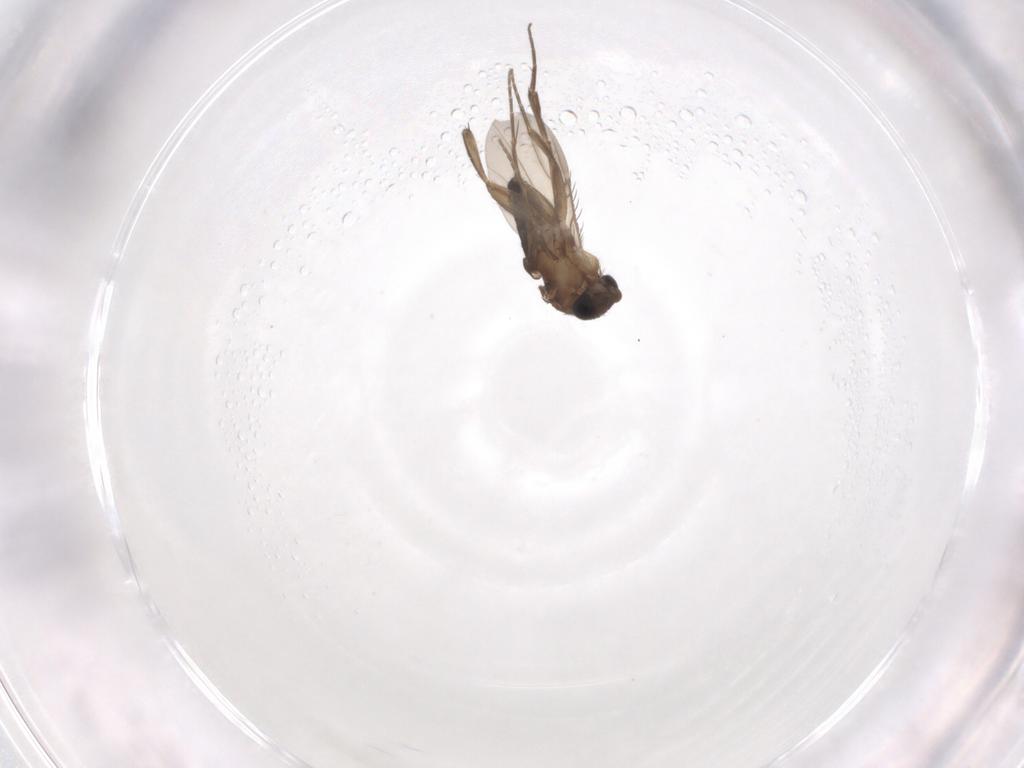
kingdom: Animalia
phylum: Arthropoda
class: Insecta
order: Diptera
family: Phoridae
